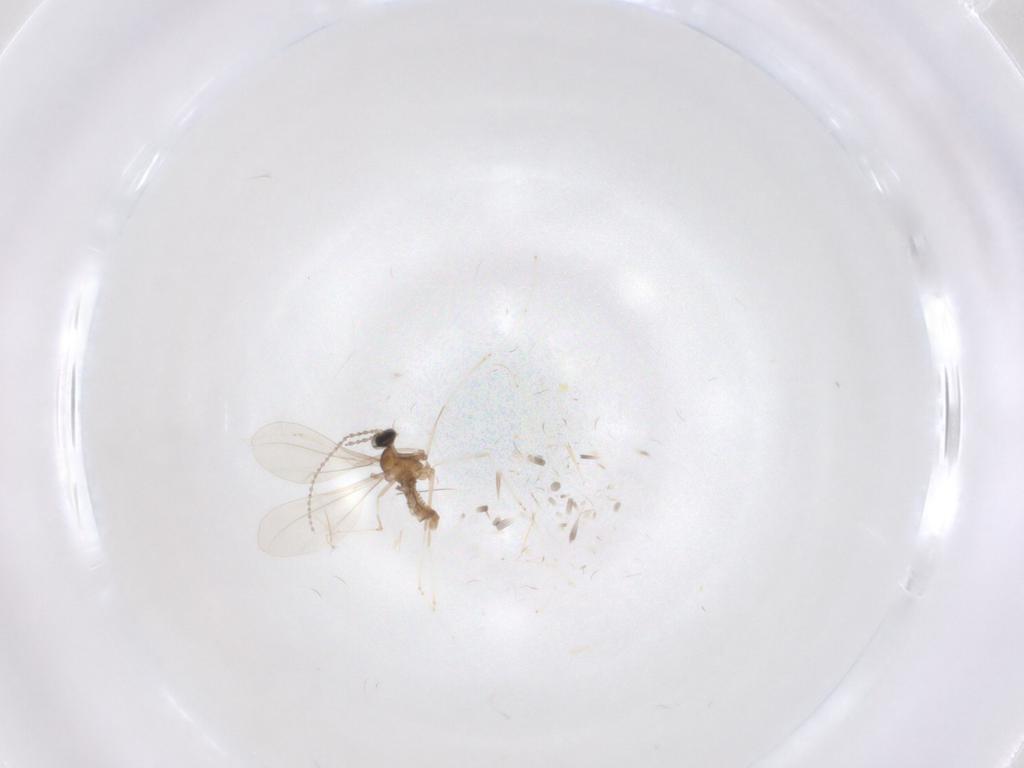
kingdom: Animalia
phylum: Arthropoda
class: Insecta
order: Diptera
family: Cecidomyiidae
